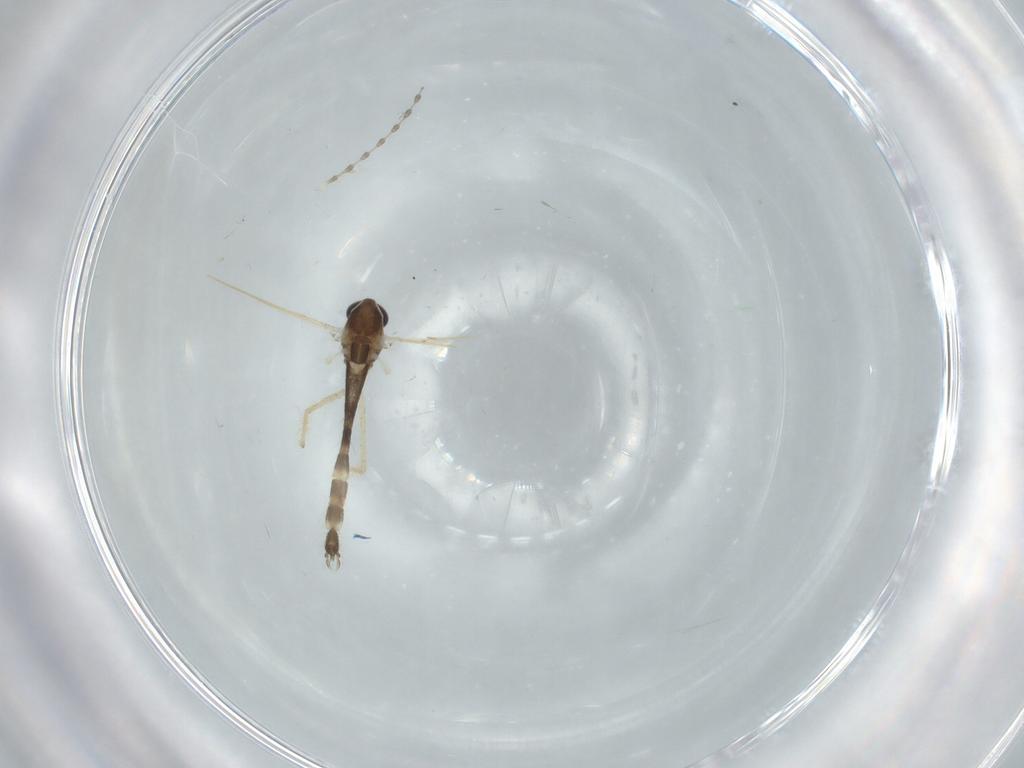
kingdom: Animalia
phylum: Arthropoda
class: Insecta
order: Diptera
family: Chironomidae
